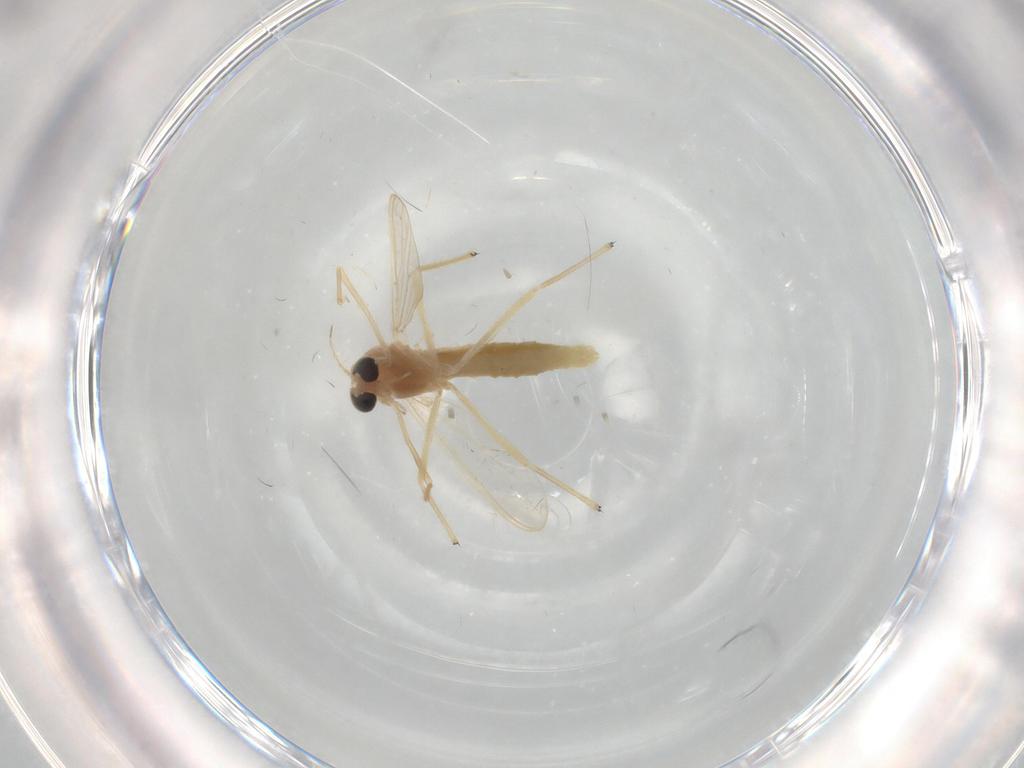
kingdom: Animalia
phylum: Arthropoda
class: Insecta
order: Diptera
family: Chironomidae
